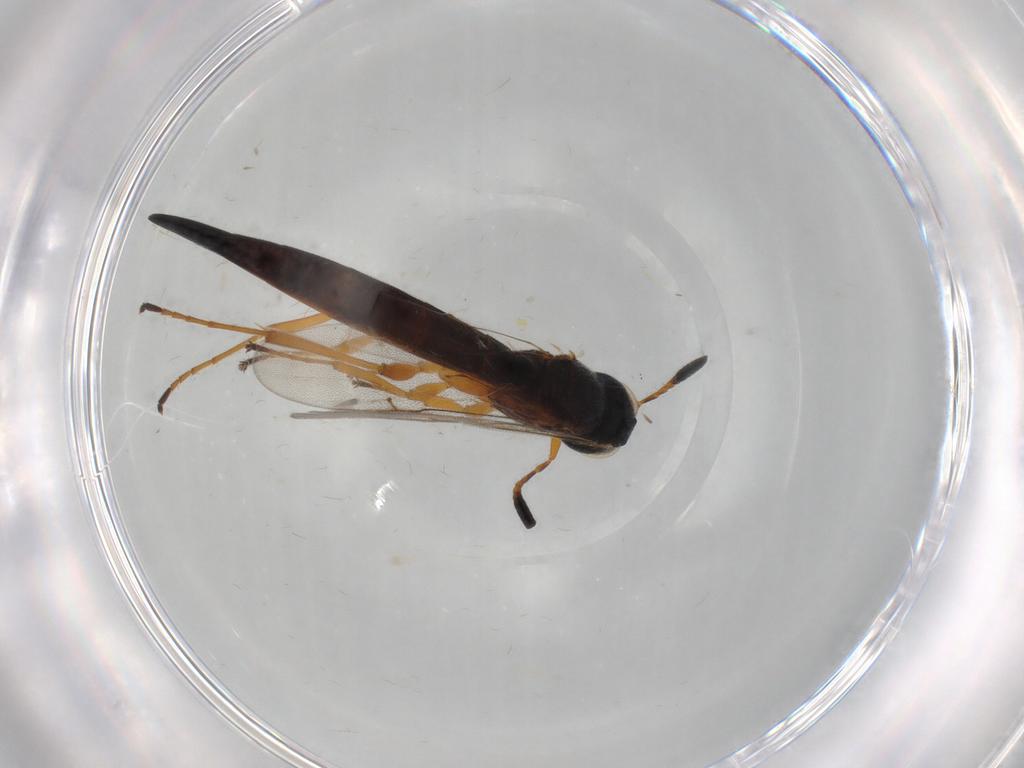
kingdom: Animalia
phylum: Arthropoda
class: Insecta
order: Hymenoptera
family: Scelionidae
